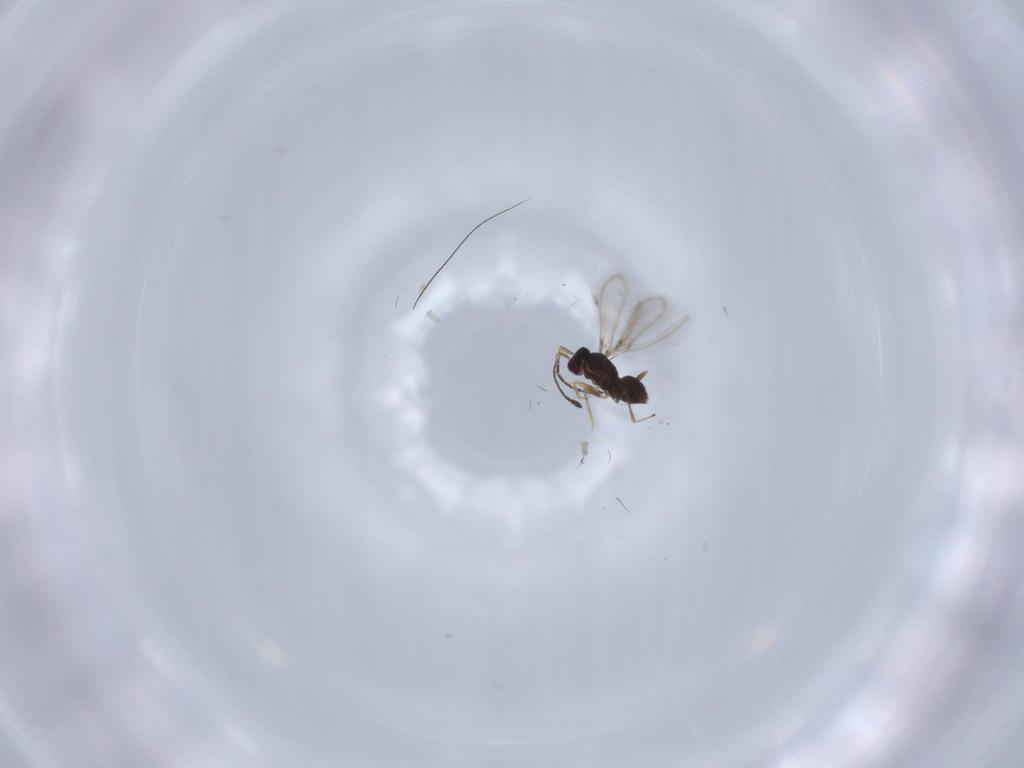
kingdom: Animalia
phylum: Arthropoda
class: Insecta
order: Hymenoptera
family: Mymaridae
